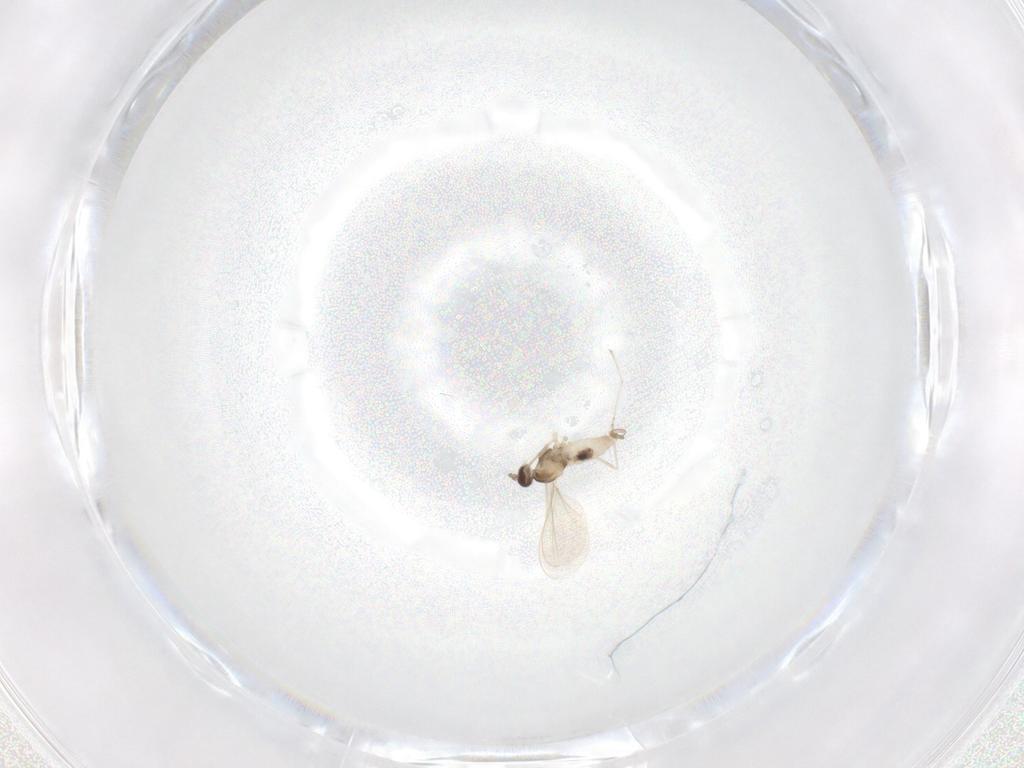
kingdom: Animalia
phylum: Arthropoda
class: Insecta
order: Diptera
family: Cecidomyiidae
